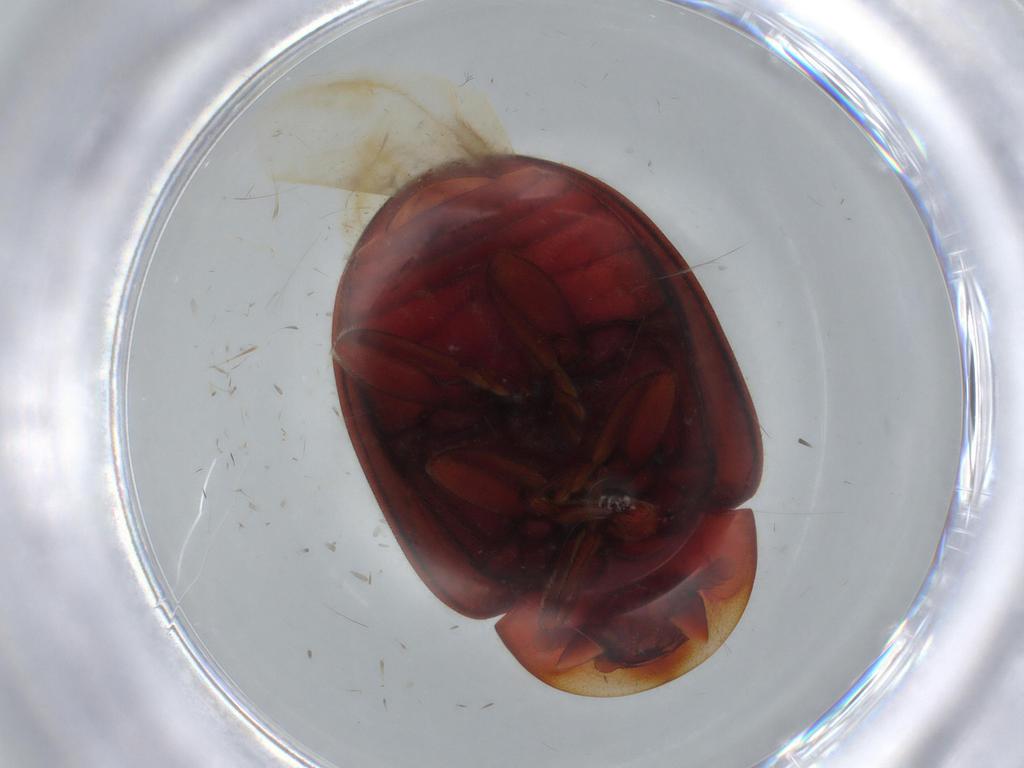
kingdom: Animalia
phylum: Arthropoda
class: Insecta
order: Coleoptera
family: Coccinellidae
